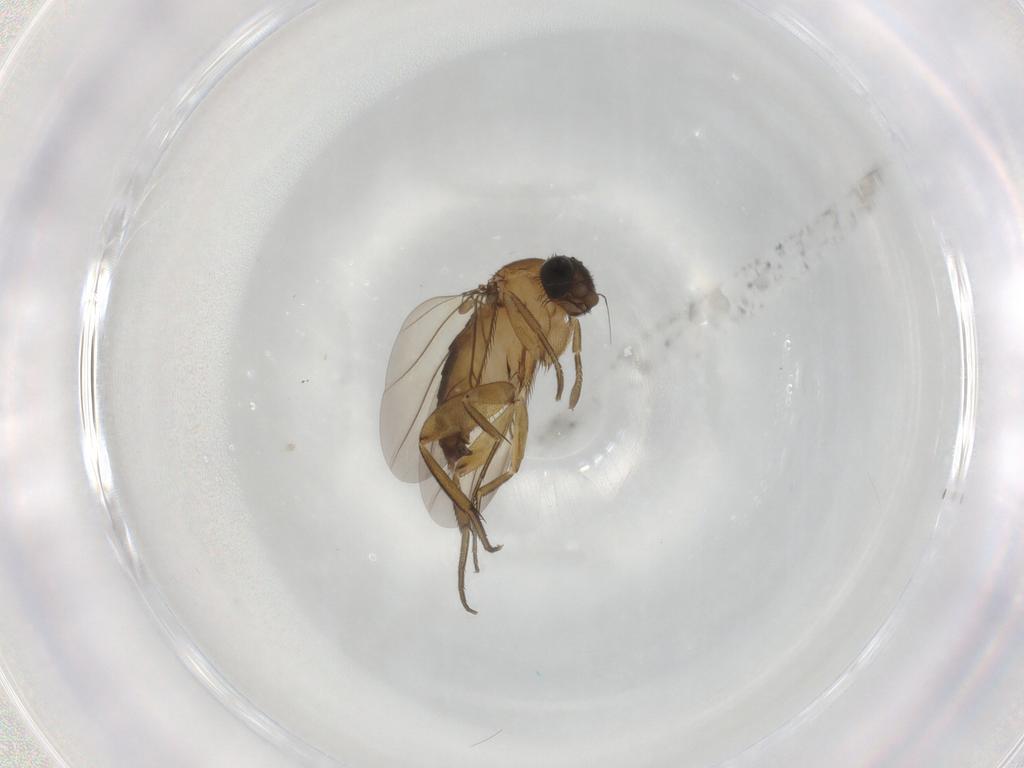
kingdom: Animalia
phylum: Arthropoda
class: Insecta
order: Diptera
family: Phoridae
